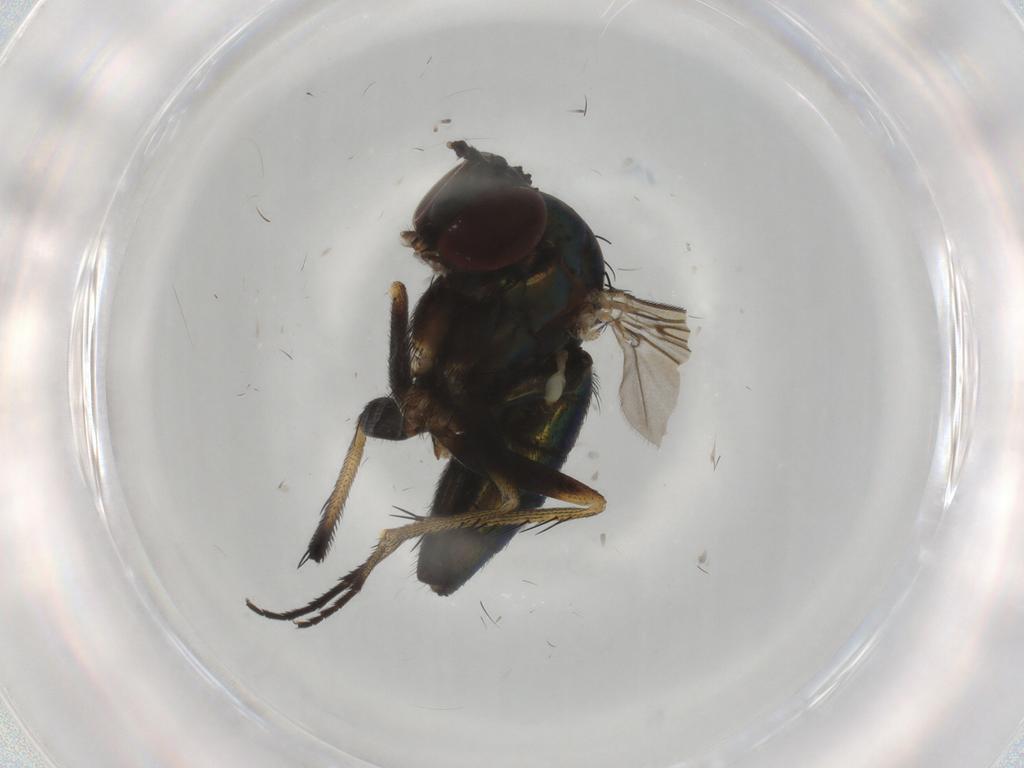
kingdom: Animalia
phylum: Arthropoda
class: Insecta
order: Diptera
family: Dolichopodidae
